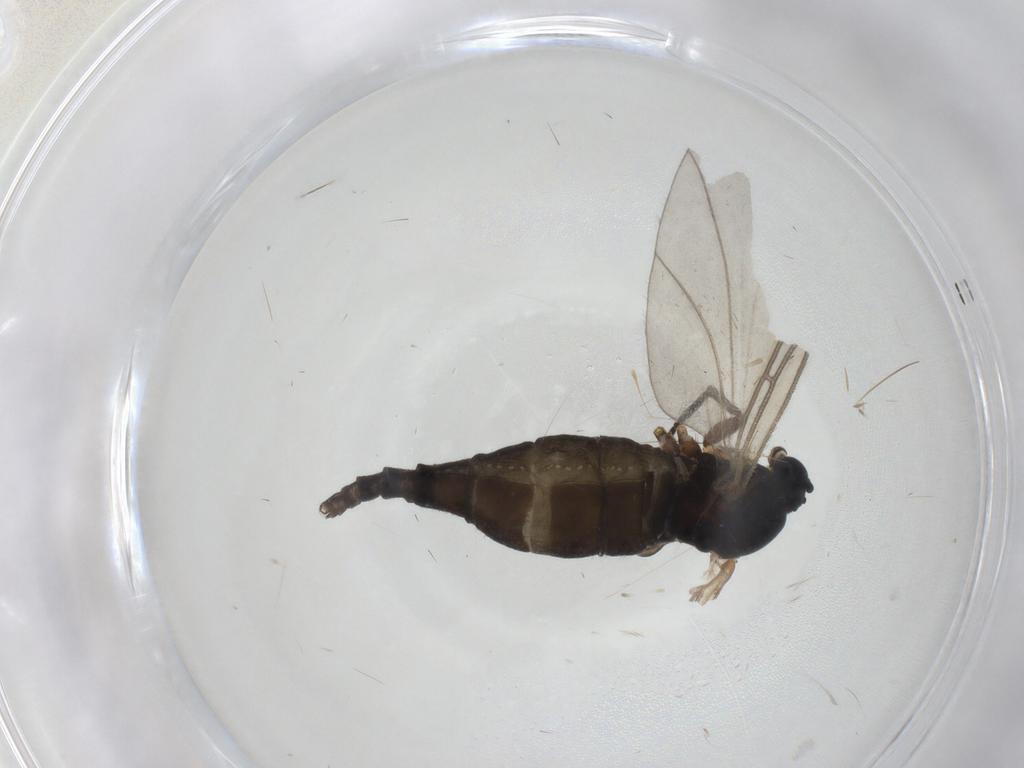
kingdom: Animalia
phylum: Arthropoda
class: Insecta
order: Diptera
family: Sciaridae
